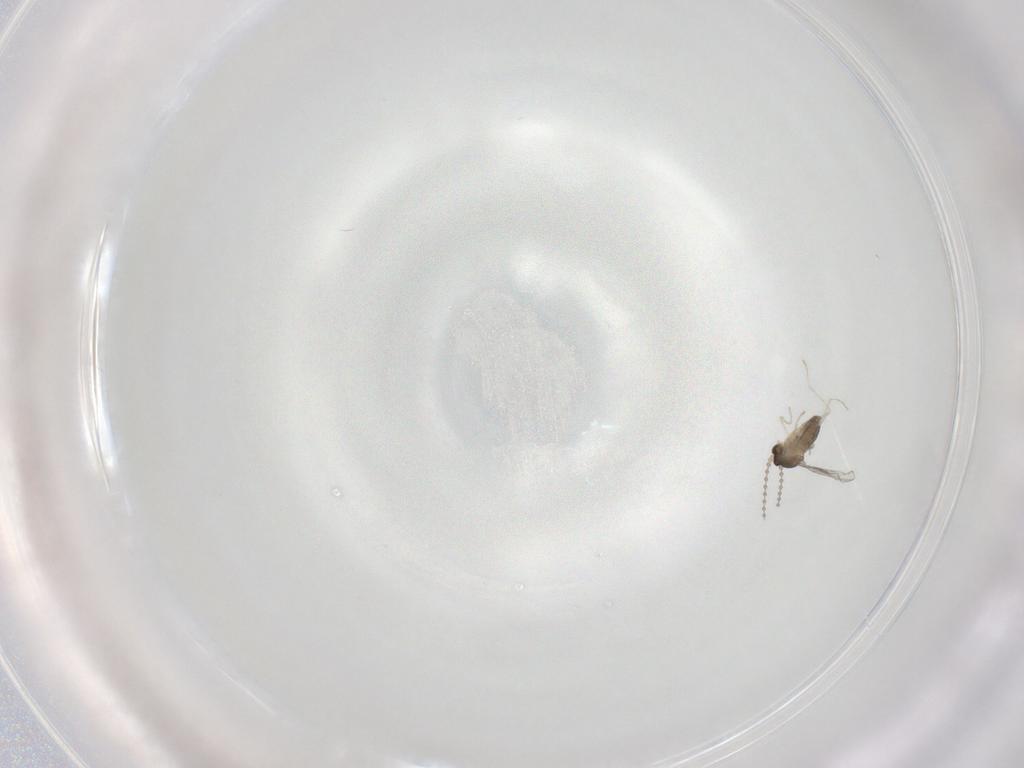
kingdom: Animalia
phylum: Arthropoda
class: Insecta
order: Diptera
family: Cecidomyiidae
